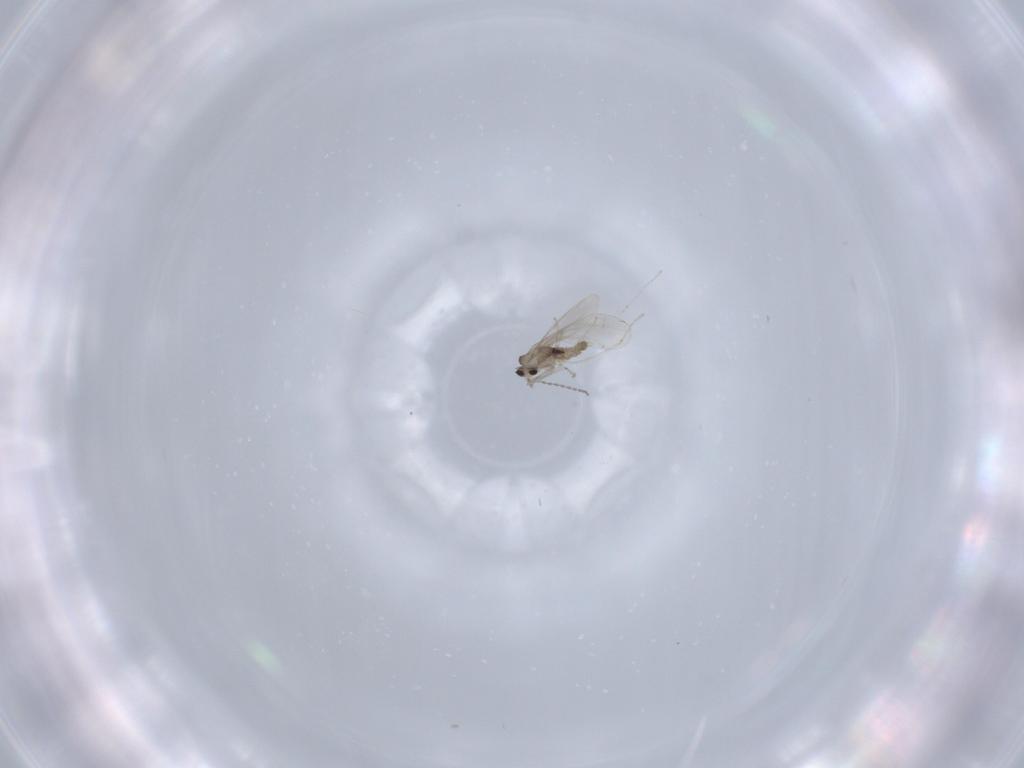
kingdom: Animalia
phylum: Arthropoda
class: Insecta
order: Diptera
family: Cecidomyiidae
